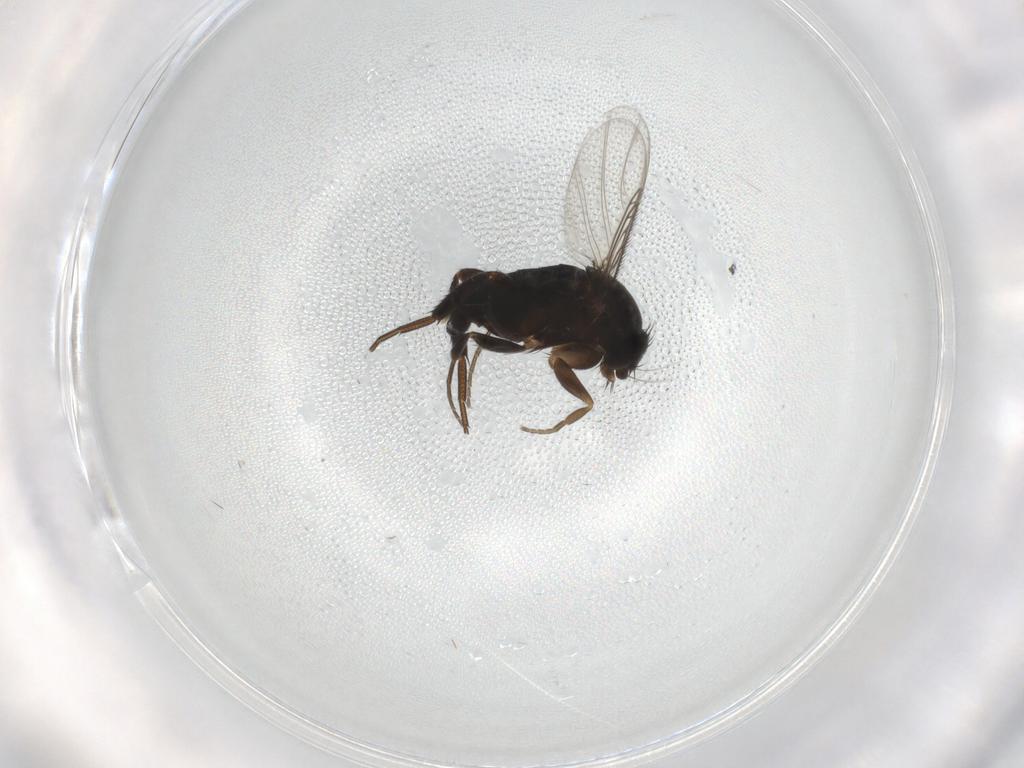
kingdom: Animalia
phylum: Arthropoda
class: Insecta
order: Diptera
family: Phoridae
